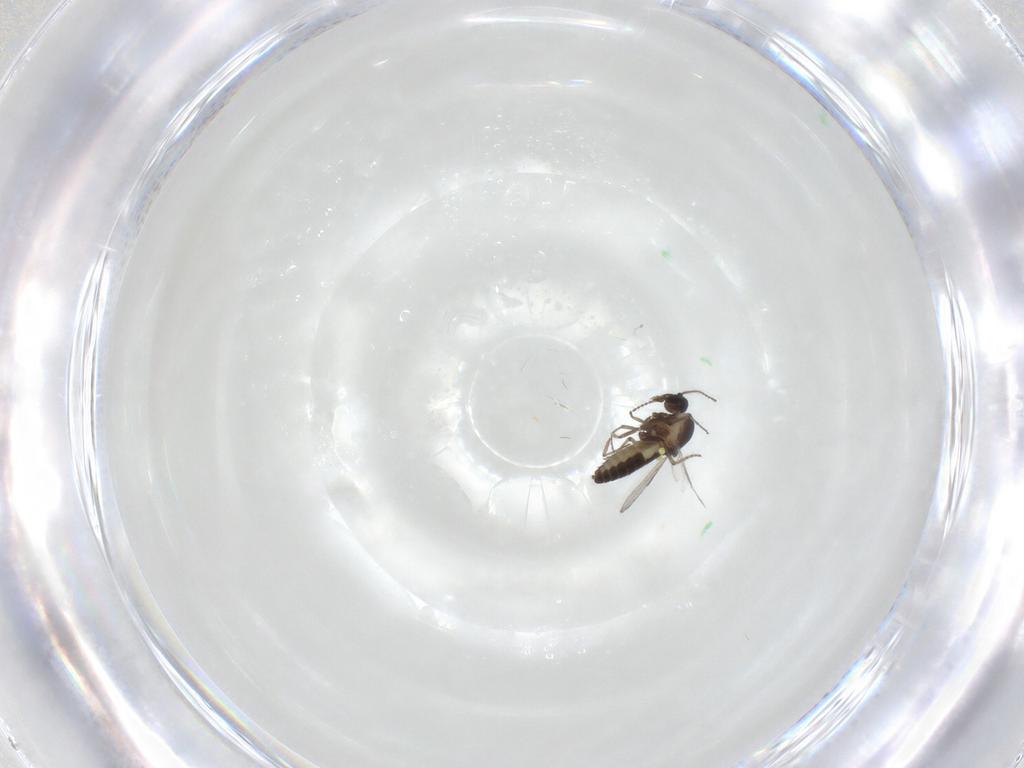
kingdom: Animalia
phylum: Arthropoda
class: Insecta
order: Diptera
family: Ceratopogonidae
